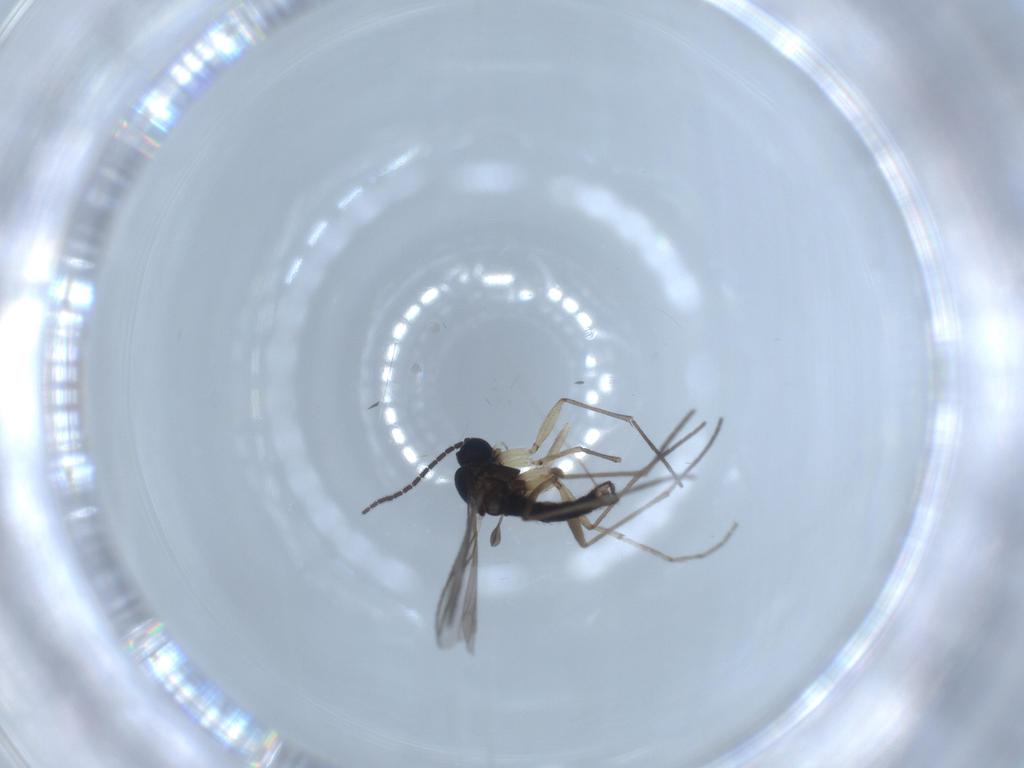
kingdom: Animalia
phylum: Arthropoda
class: Insecta
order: Diptera
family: Sciaridae
